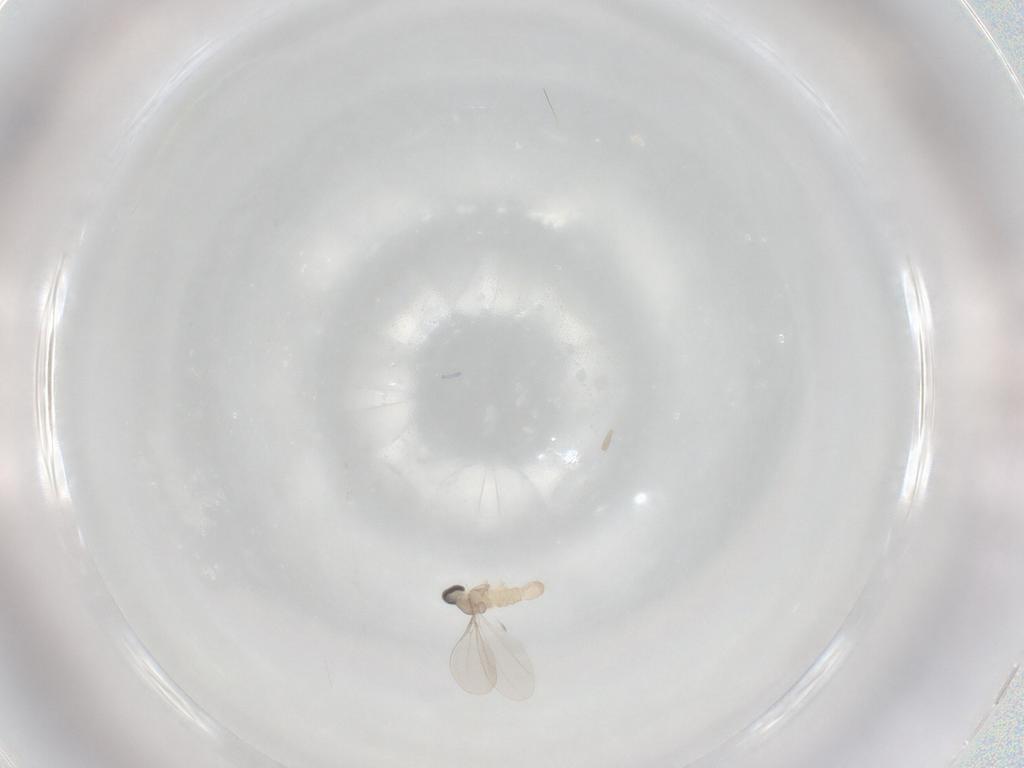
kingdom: Animalia
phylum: Arthropoda
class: Insecta
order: Diptera
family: Cecidomyiidae
